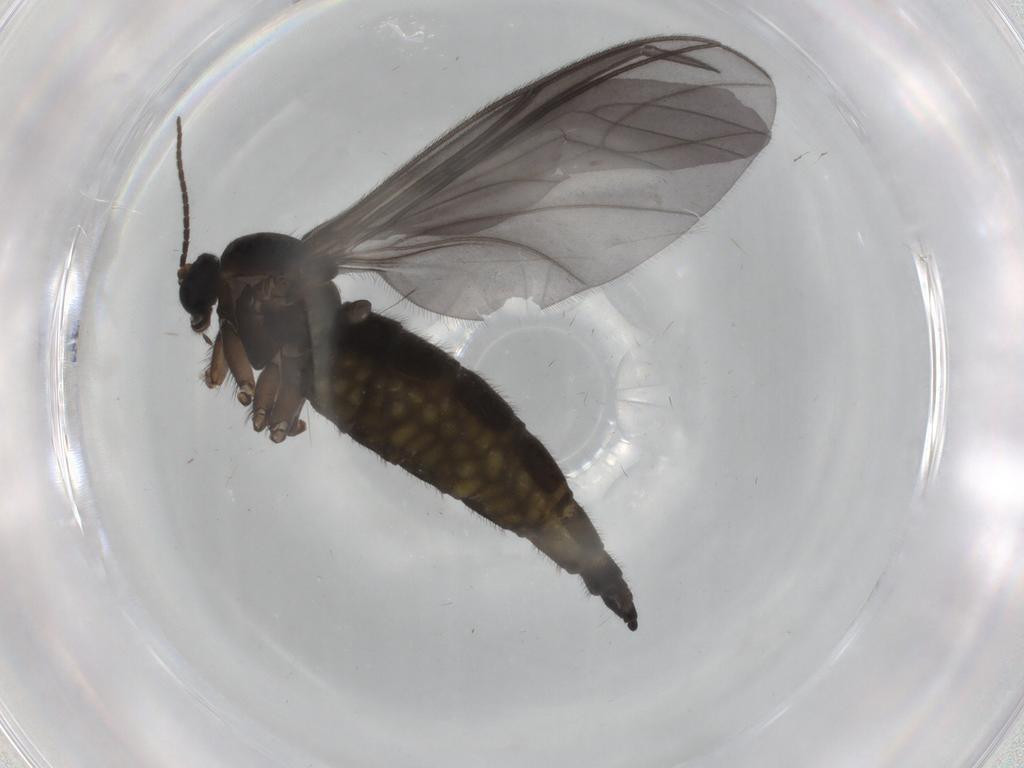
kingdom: Animalia
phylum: Arthropoda
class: Insecta
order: Diptera
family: Sciaridae
